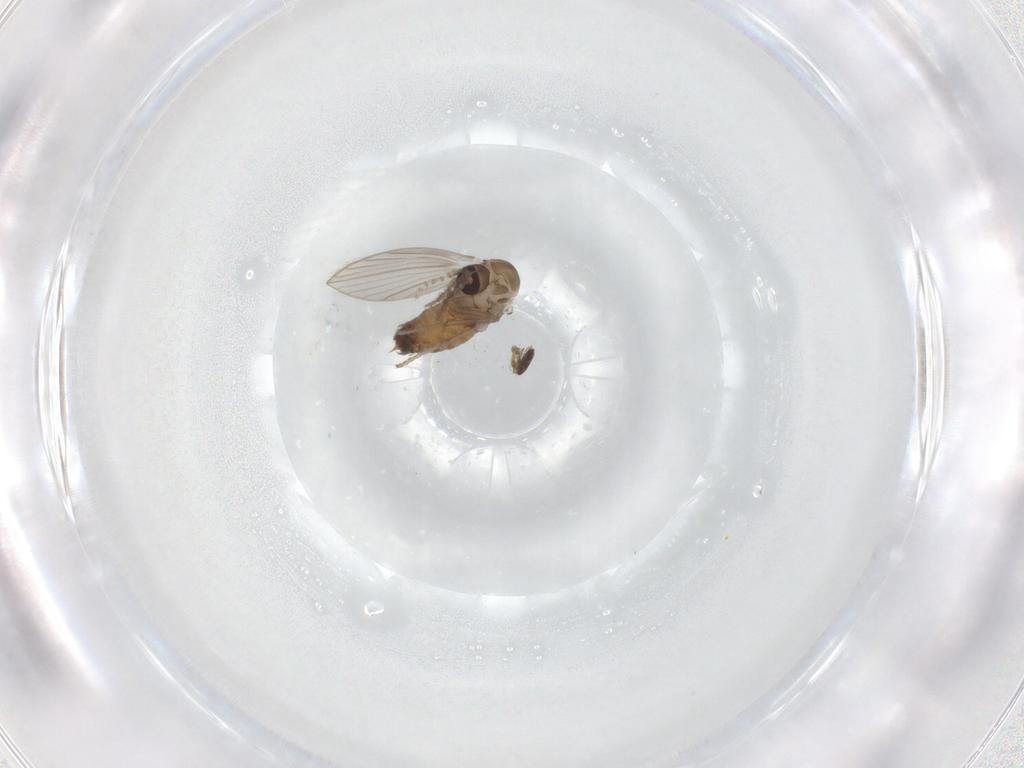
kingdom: Animalia
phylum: Arthropoda
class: Insecta
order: Diptera
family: Psychodidae
